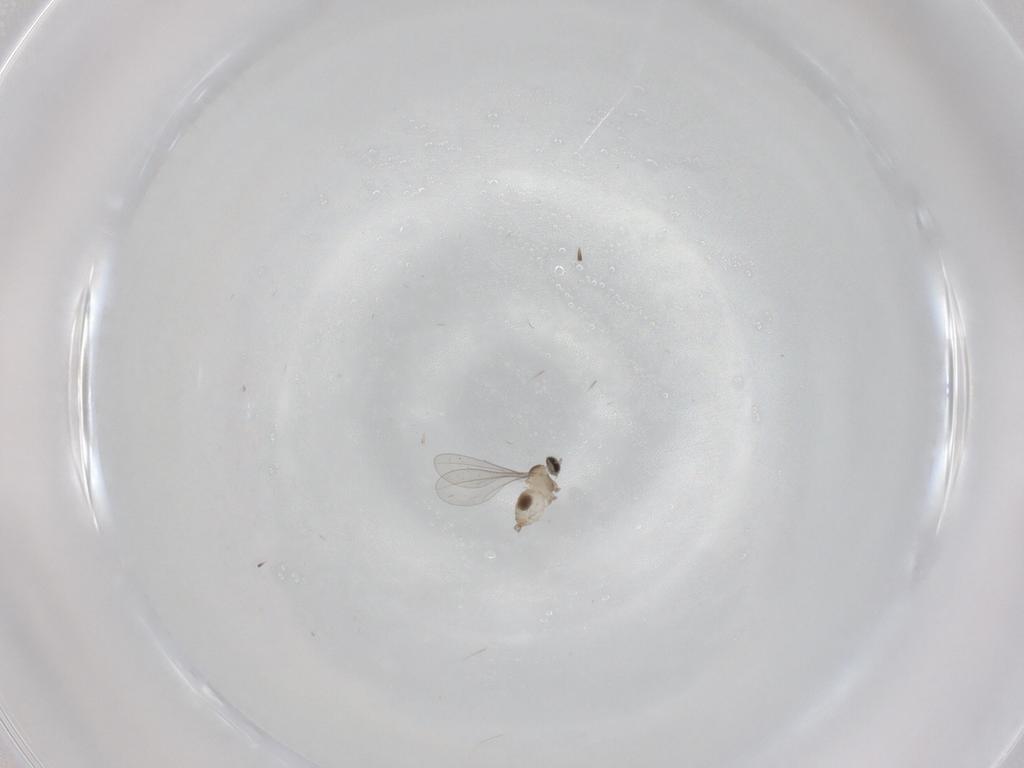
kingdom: Animalia
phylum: Arthropoda
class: Insecta
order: Diptera
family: Cecidomyiidae
